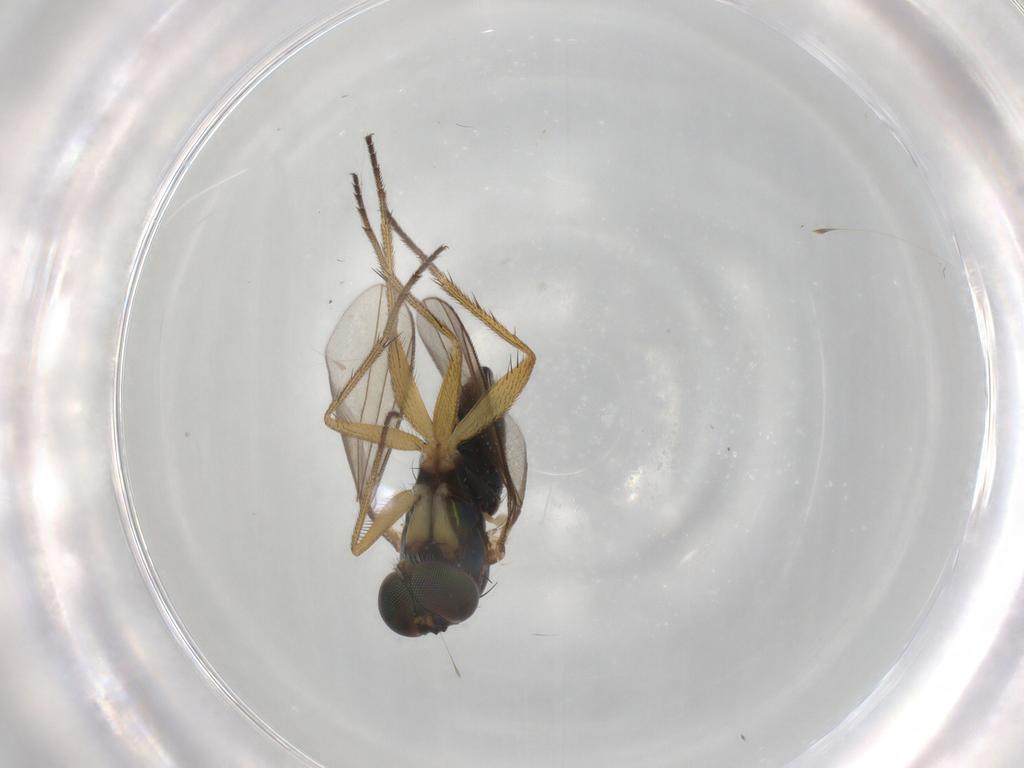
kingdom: Animalia
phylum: Arthropoda
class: Insecta
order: Diptera
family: Dolichopodidae
